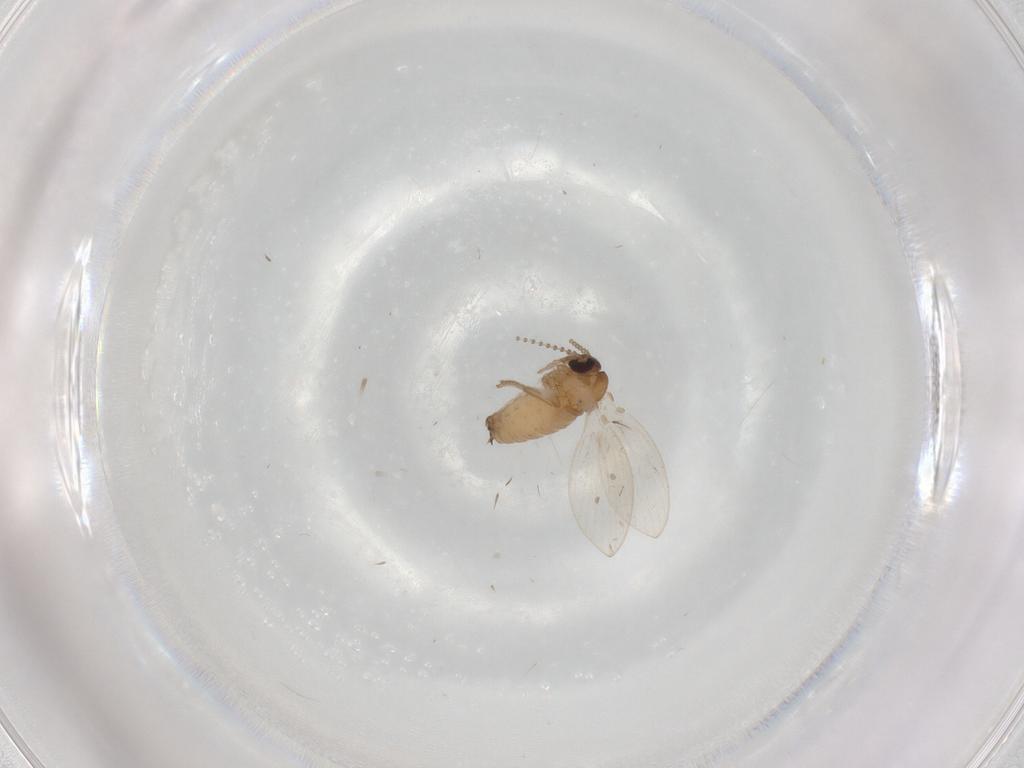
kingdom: Animalia
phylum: Arthropoda
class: Insecta
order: Diptera
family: Psychodidae
